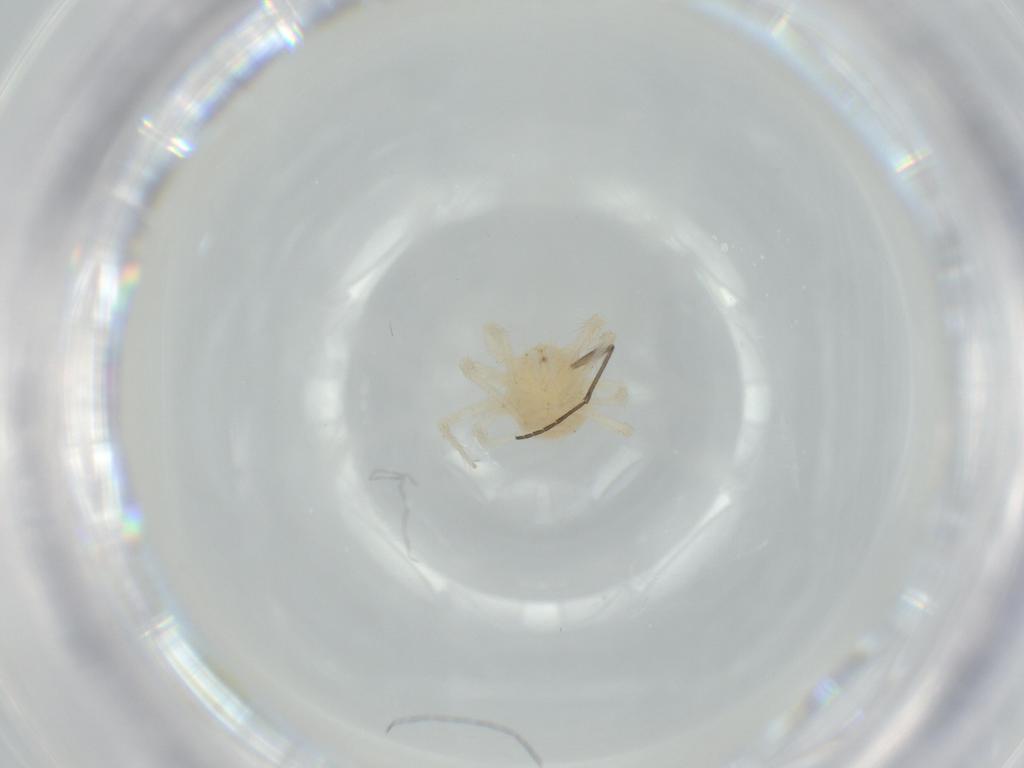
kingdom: Animalia
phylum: Arthropoda
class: Arachnida
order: Trombidiformes
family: Anystidae
